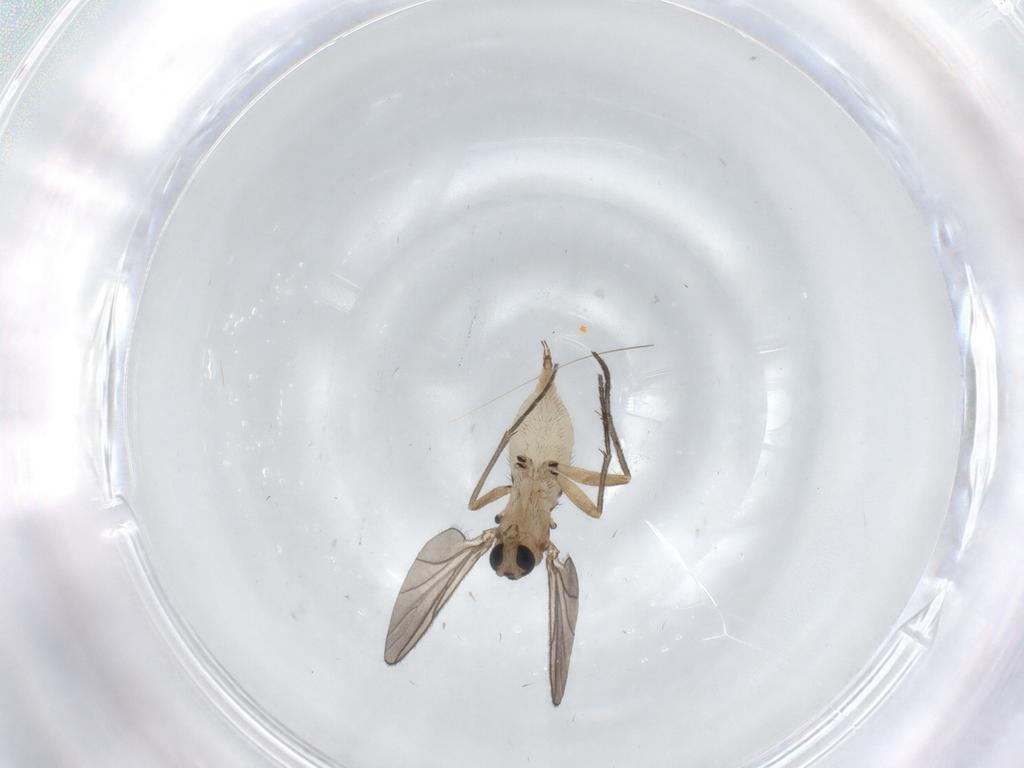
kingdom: Animalia
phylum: Arthropoda
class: Insecta
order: Diptera
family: Sciaridae
